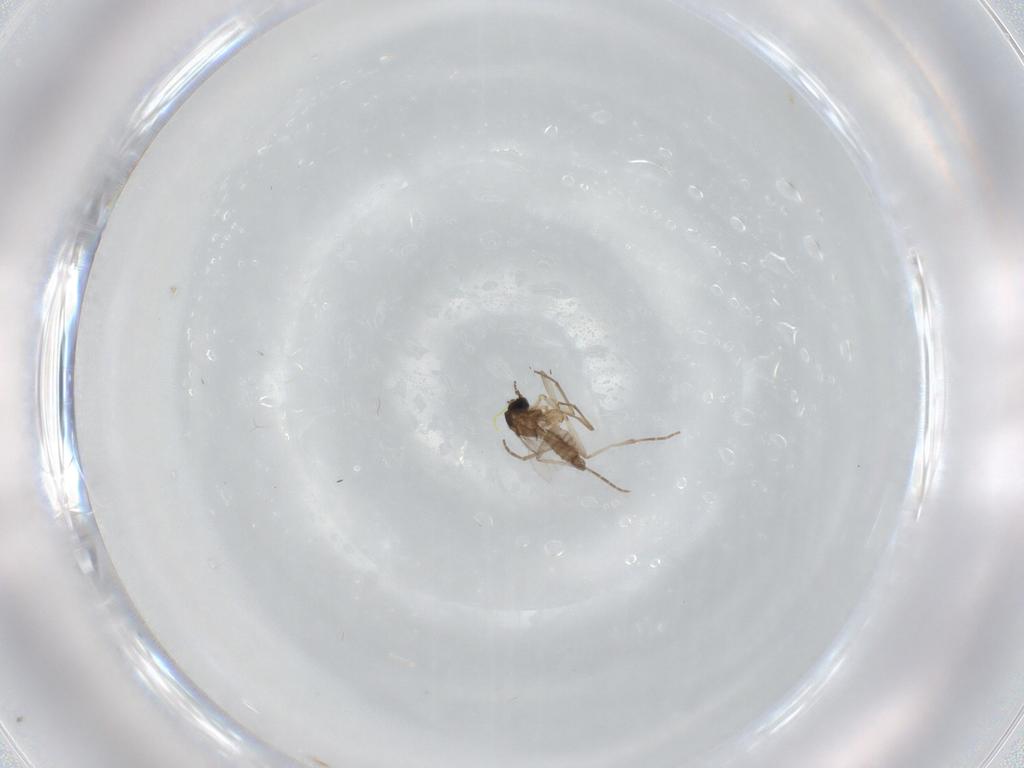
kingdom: Animalia
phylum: Arthropoda
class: Insecta
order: Diptera
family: Sciaridae
